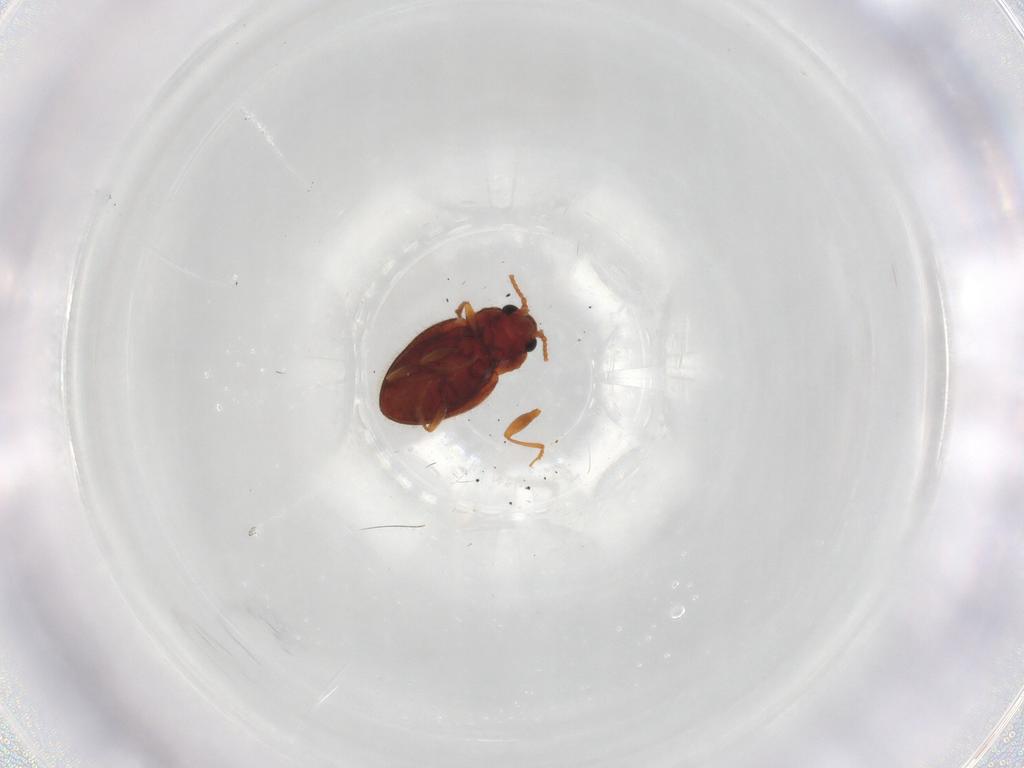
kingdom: Animalia
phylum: Arthropoda
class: Insecta
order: Coleoptera
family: Erotylidae
